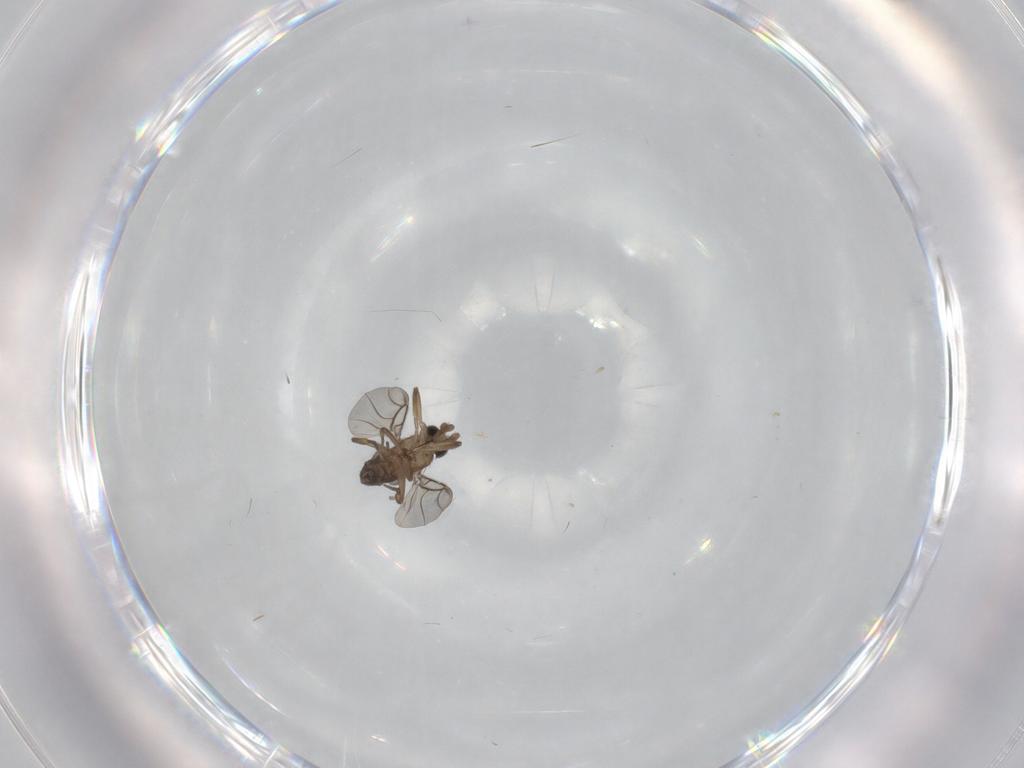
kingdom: Animalia
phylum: Arthropoda
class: Insecta
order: Diptera
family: Phoridae
